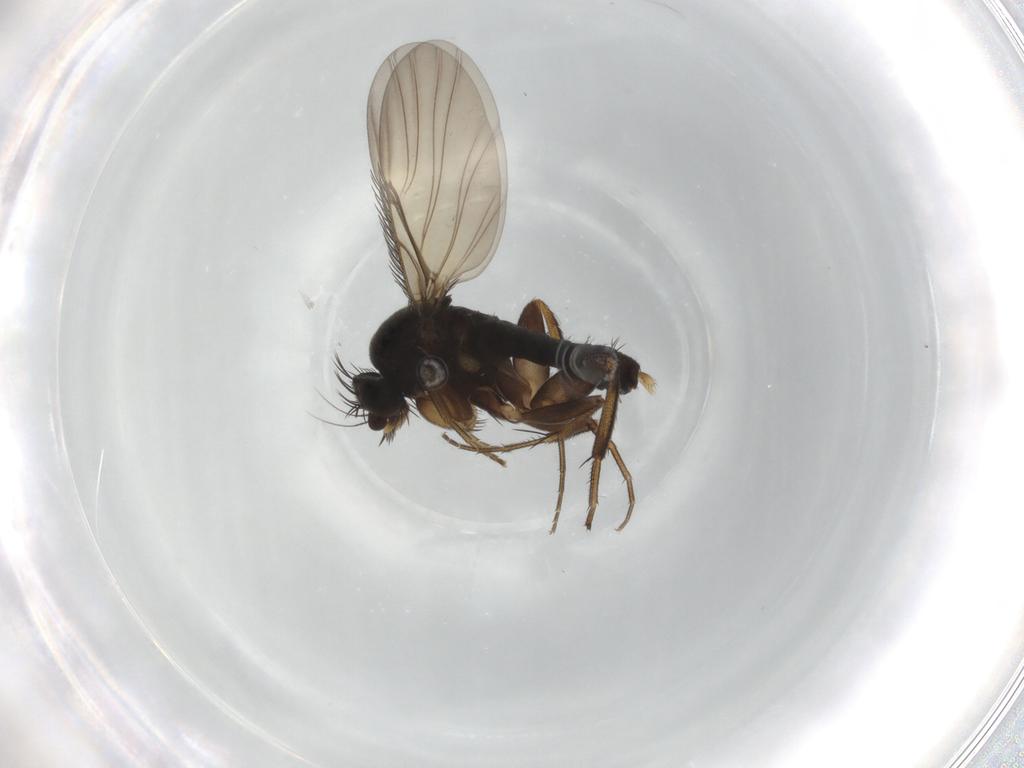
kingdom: Animalia
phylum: Arthropoda
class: Insecta
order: Diptera
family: Phoridae
